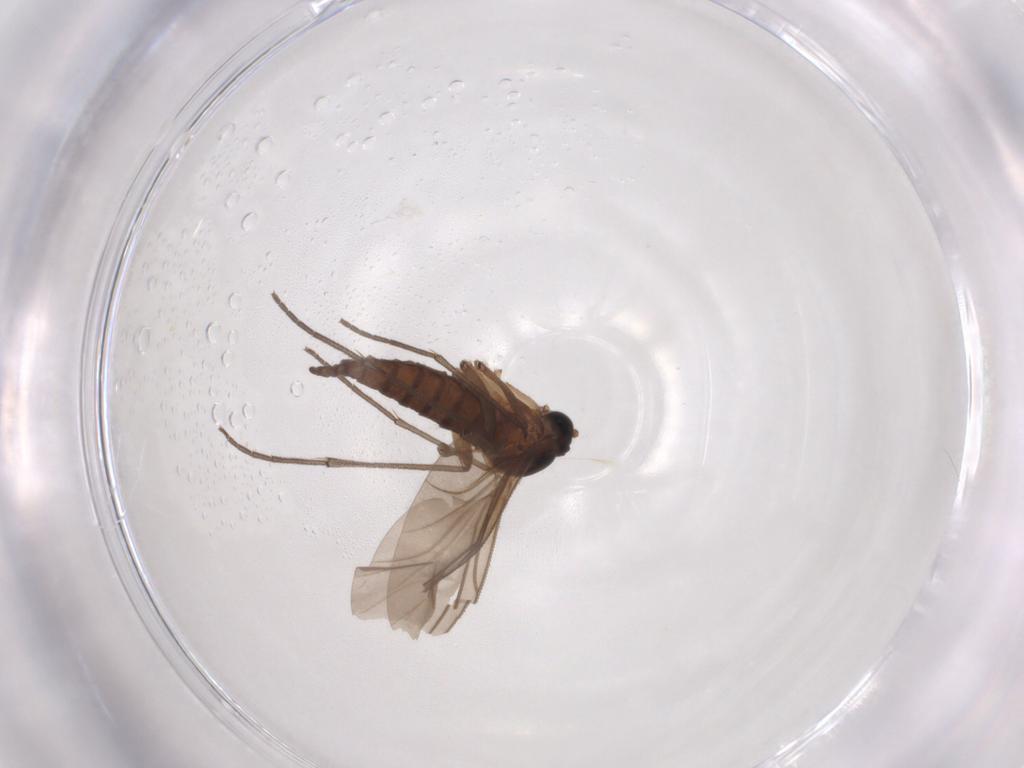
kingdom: Animalia
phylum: Arthropoda
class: Insecta
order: Diptera
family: Sciaridae
